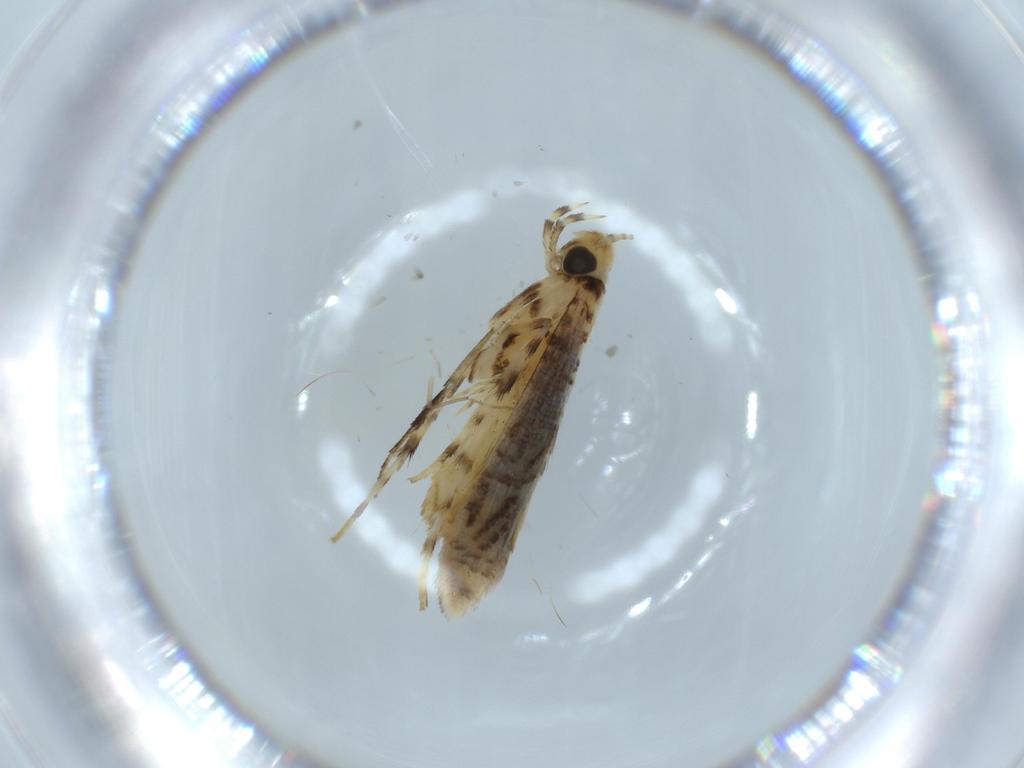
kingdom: Animalia
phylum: Arthropoda
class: Insecta
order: Lepidoptera
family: Gracillariidae
